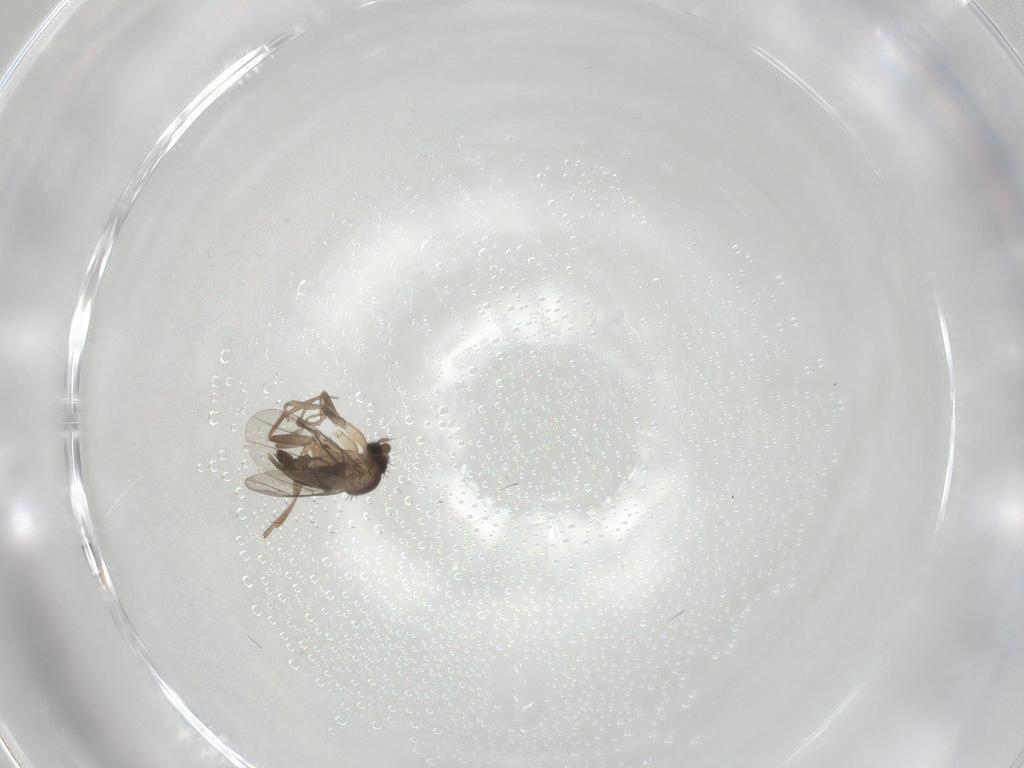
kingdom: Animalia
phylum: Arthropoda
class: Insecta
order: Diptera
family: Phoridae
